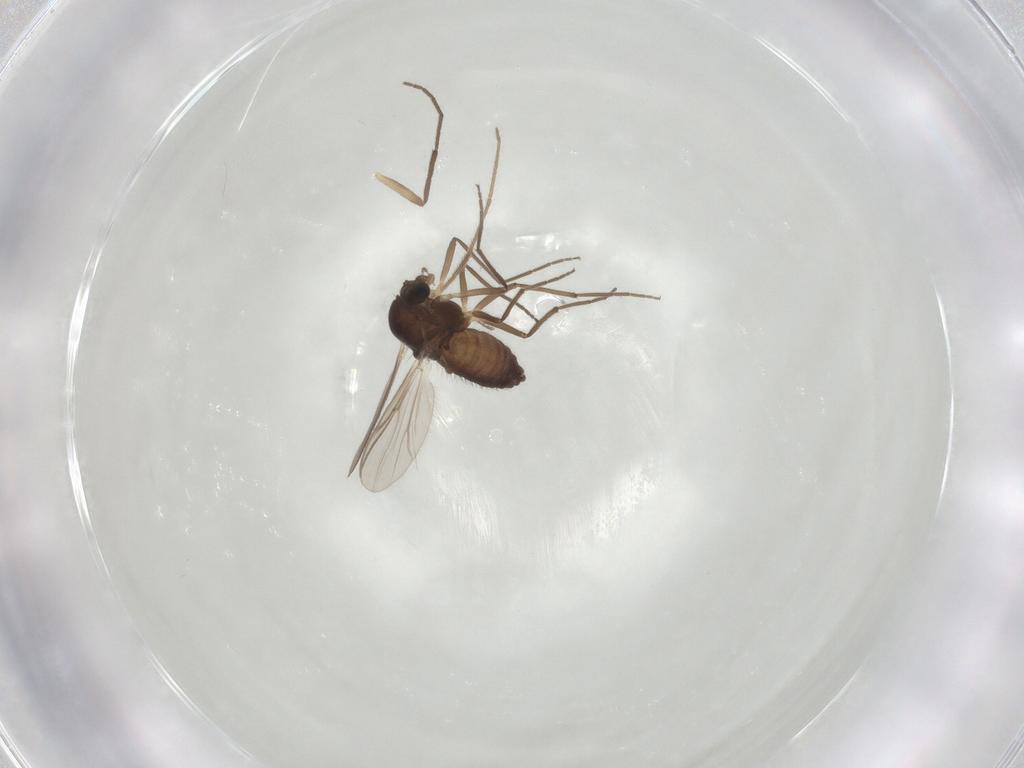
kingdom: Animalia
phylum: Arthropoda
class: Insecta
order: Diptera
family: Chironomidae
